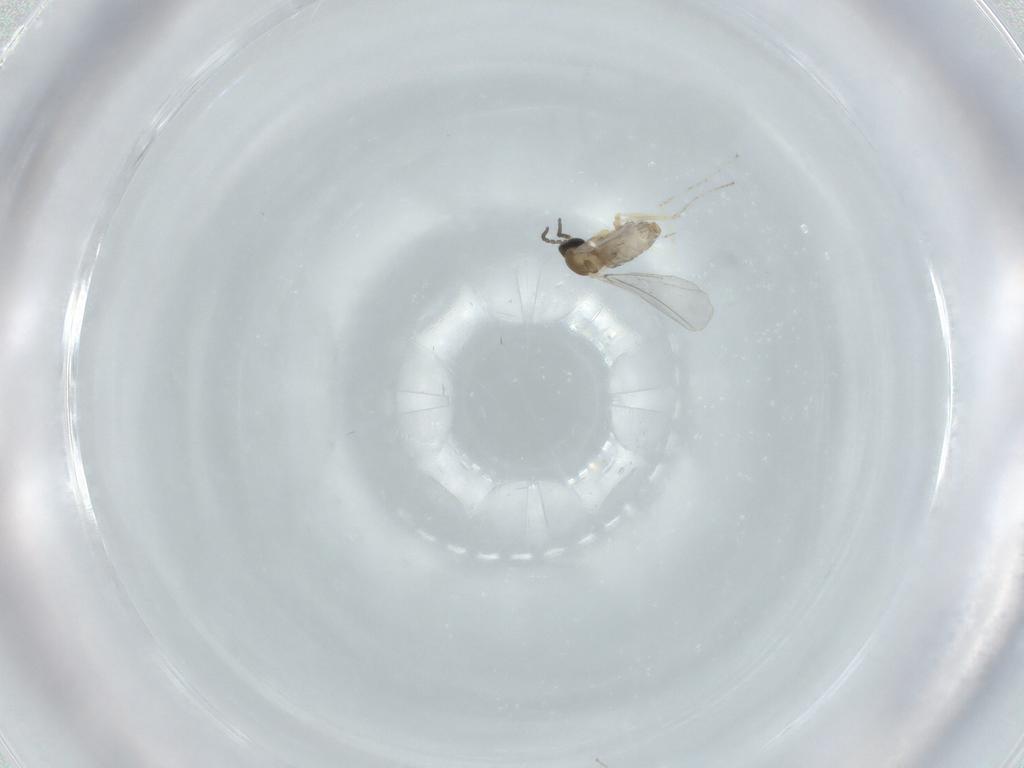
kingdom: Animalia
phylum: Arthropoda
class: Insecta
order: Diptera
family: Cecidomyiidae
